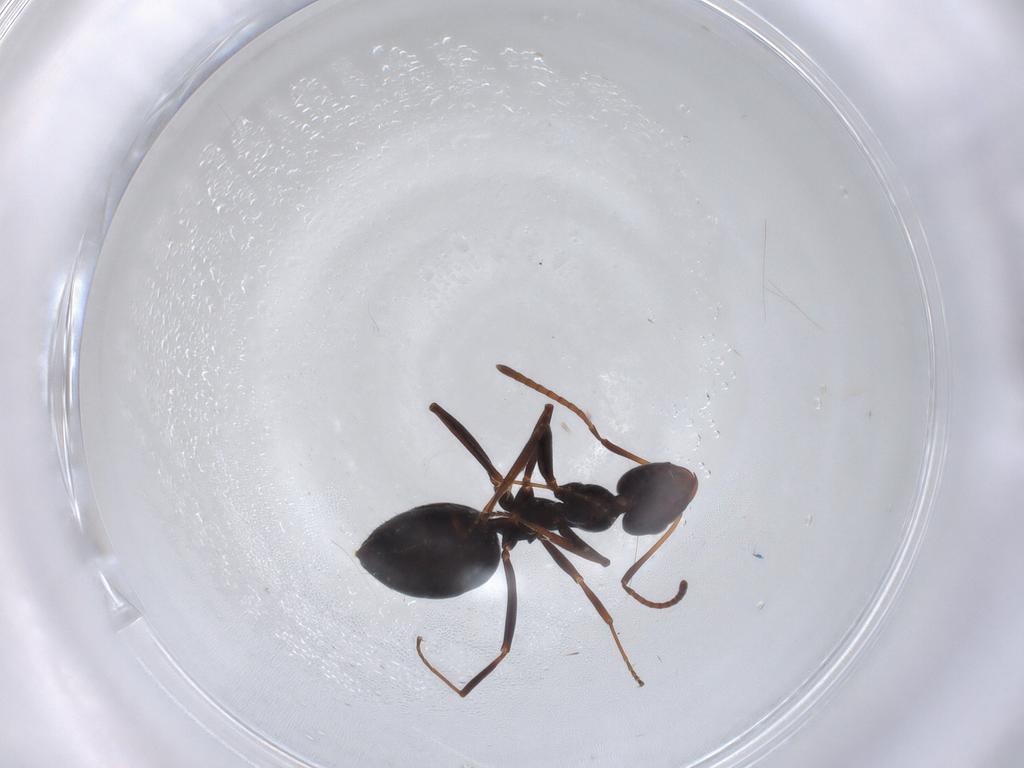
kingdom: Animalia
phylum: Arthropoda
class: Insecta
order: Hymenoptera
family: Formicidae
